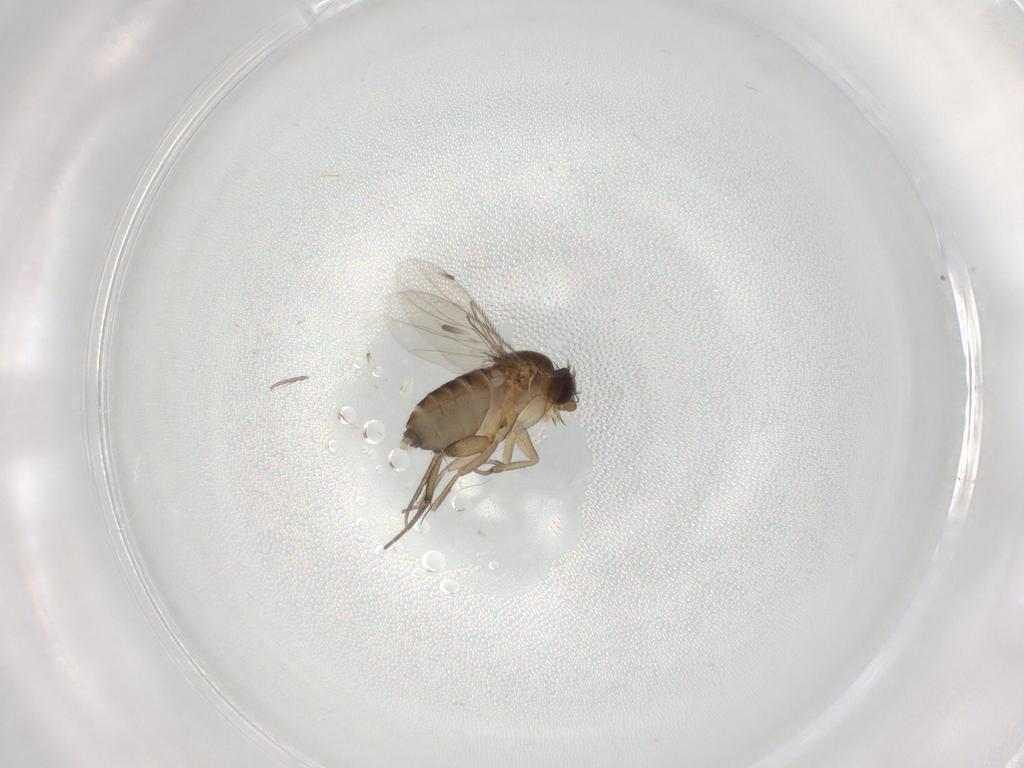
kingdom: Animalia
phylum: Arthropoda
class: Insecta
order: Diptera
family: Phoridae
